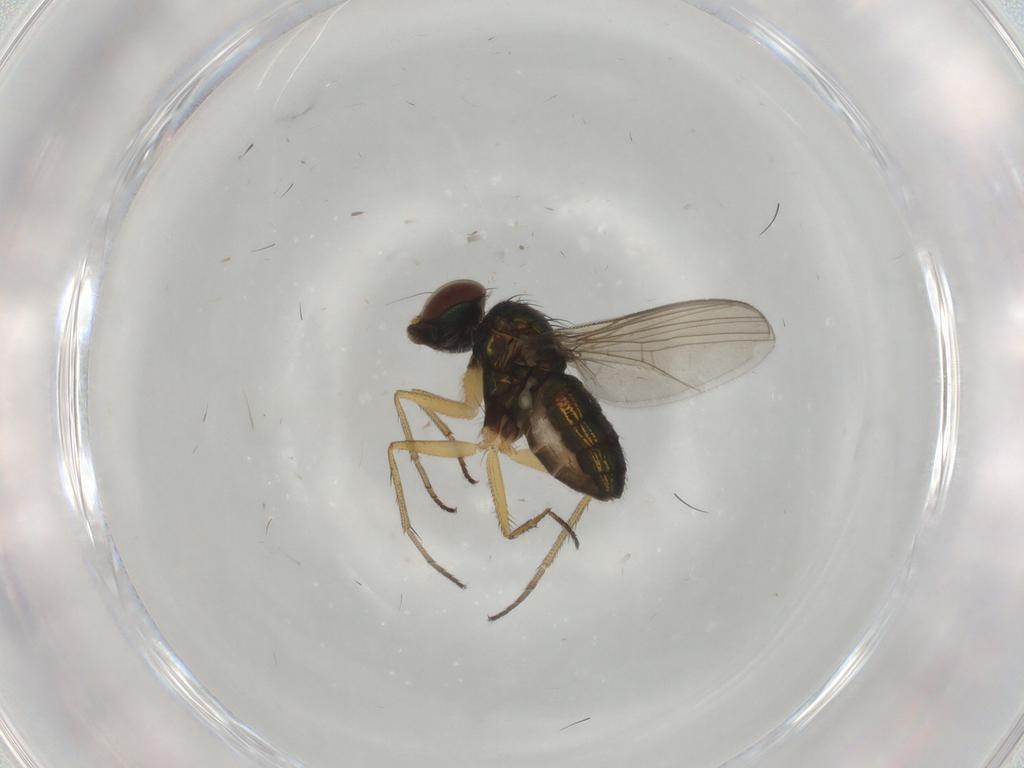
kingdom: Animalia
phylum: Arthropoda
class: Insecta
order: Diptera
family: Dolichopodidae
